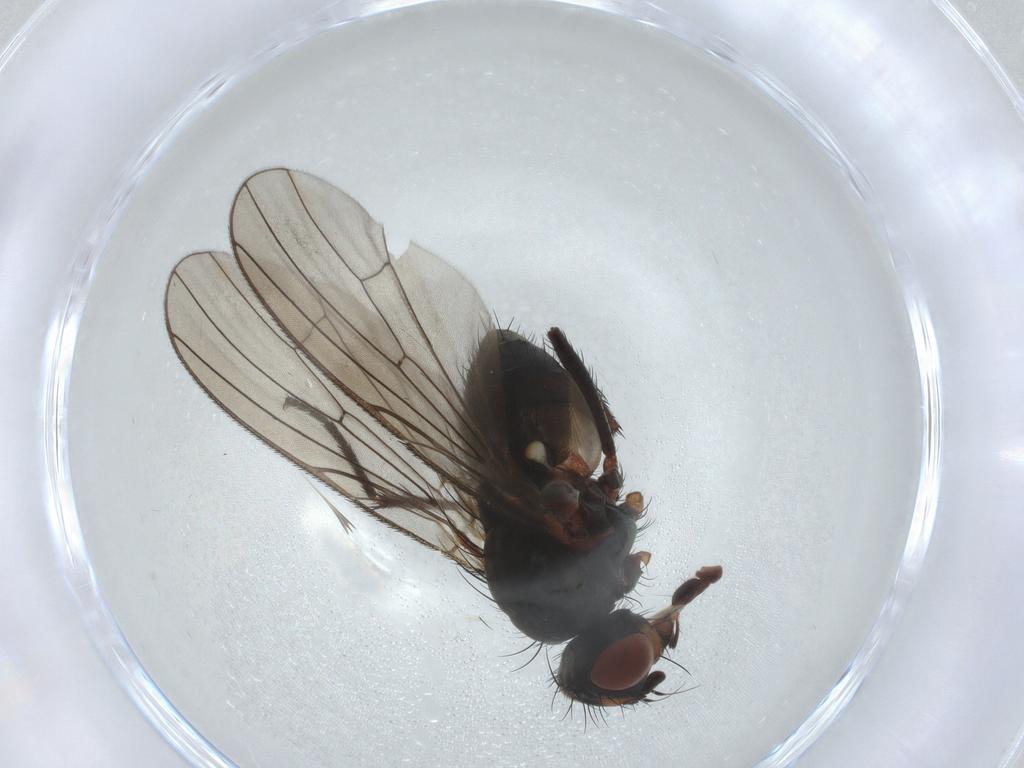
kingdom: Animalia
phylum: Arthropoda
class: Insecta
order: Diptera
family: Anthomyiidae
